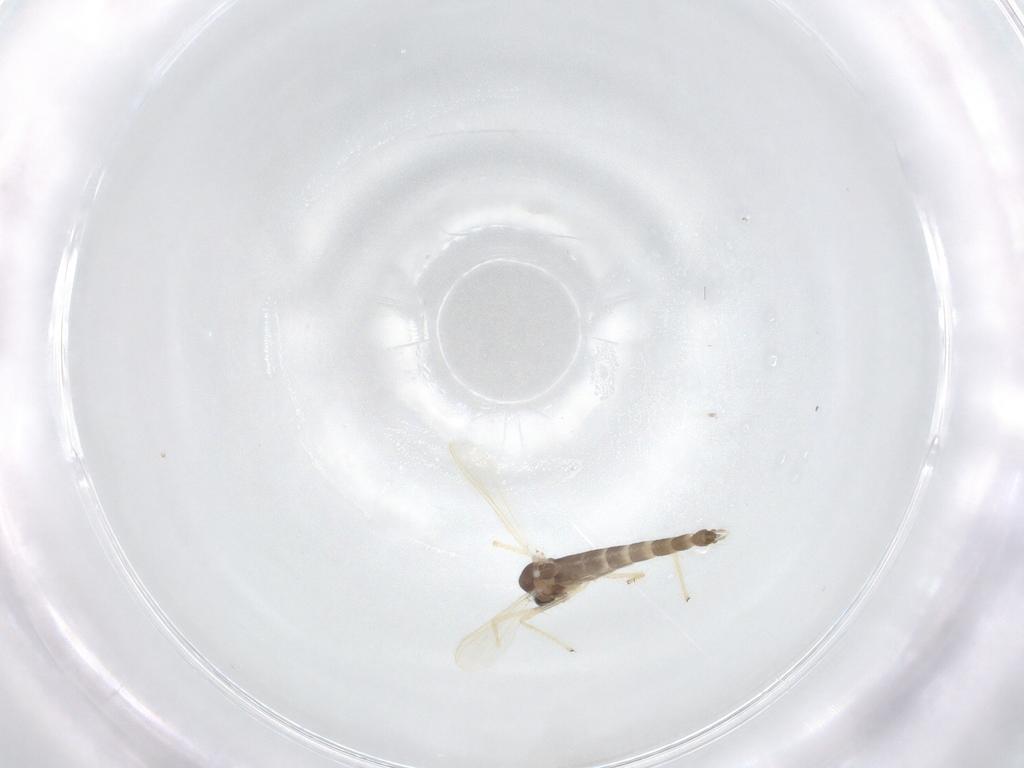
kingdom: Animalia
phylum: Arthropoda
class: Insecta
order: Diptera
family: Chironomidae
